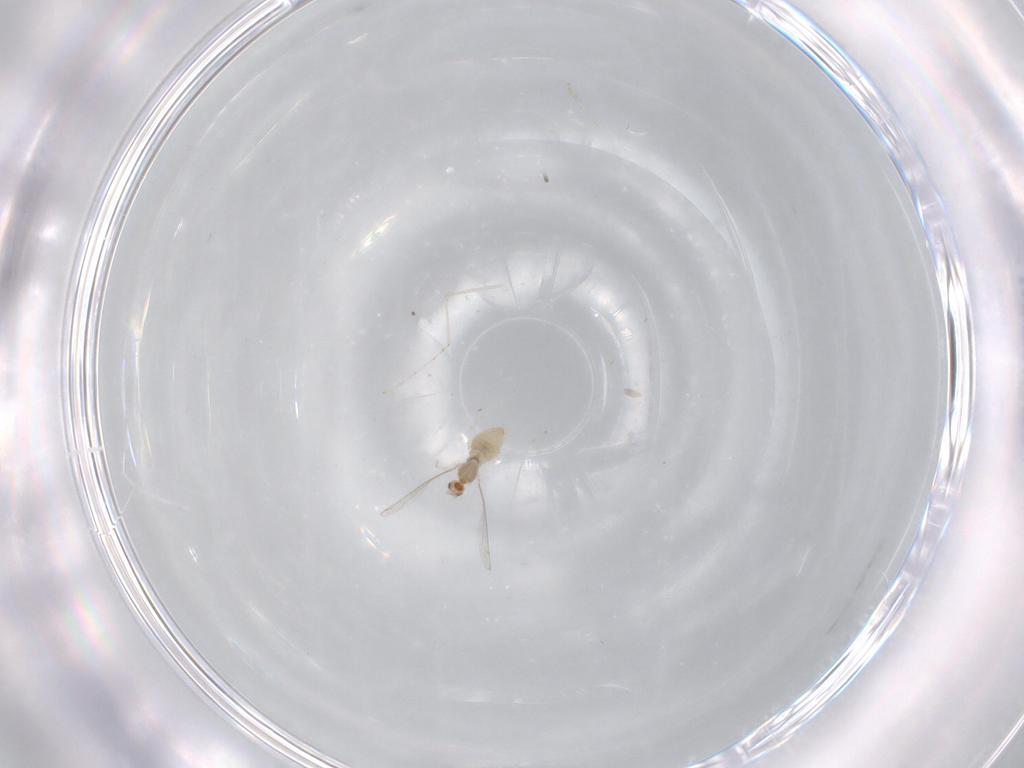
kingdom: Animalia
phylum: Arthropoda
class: Insecta
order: Diptera
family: Cecidomyiidae
